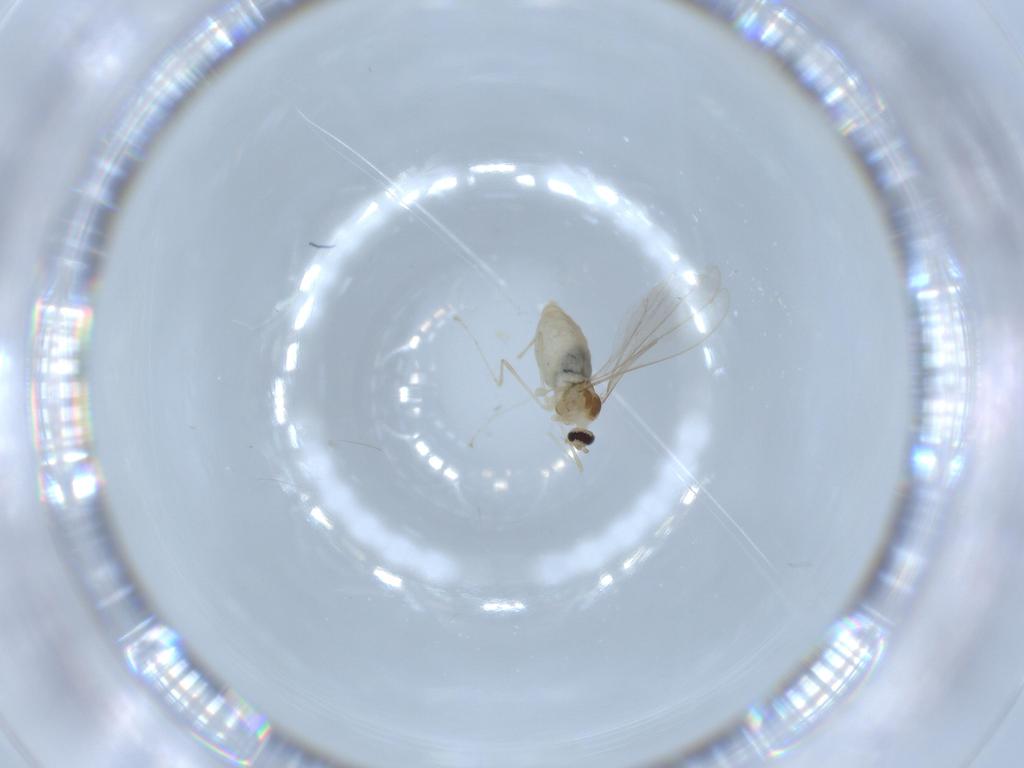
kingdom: Animalia
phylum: Arthropoda
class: Insecta
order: Diptera
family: Cecidomyiidae
